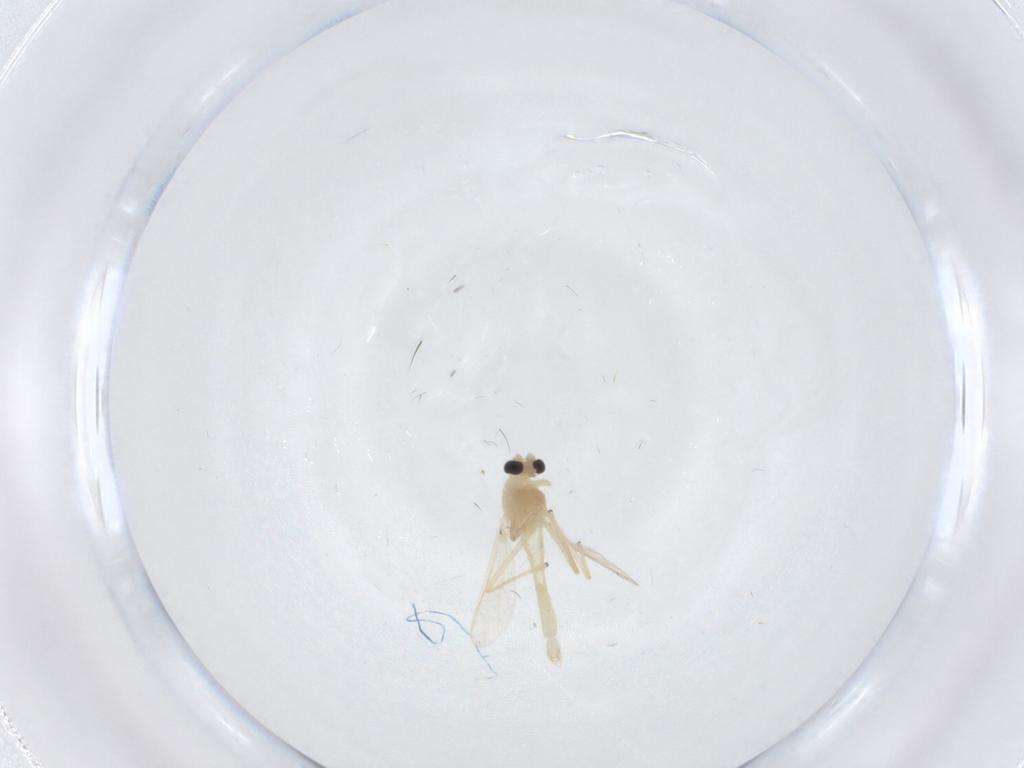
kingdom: Animalia
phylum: Arthropoda
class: Insecta
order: Diptera
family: Chironomidae
